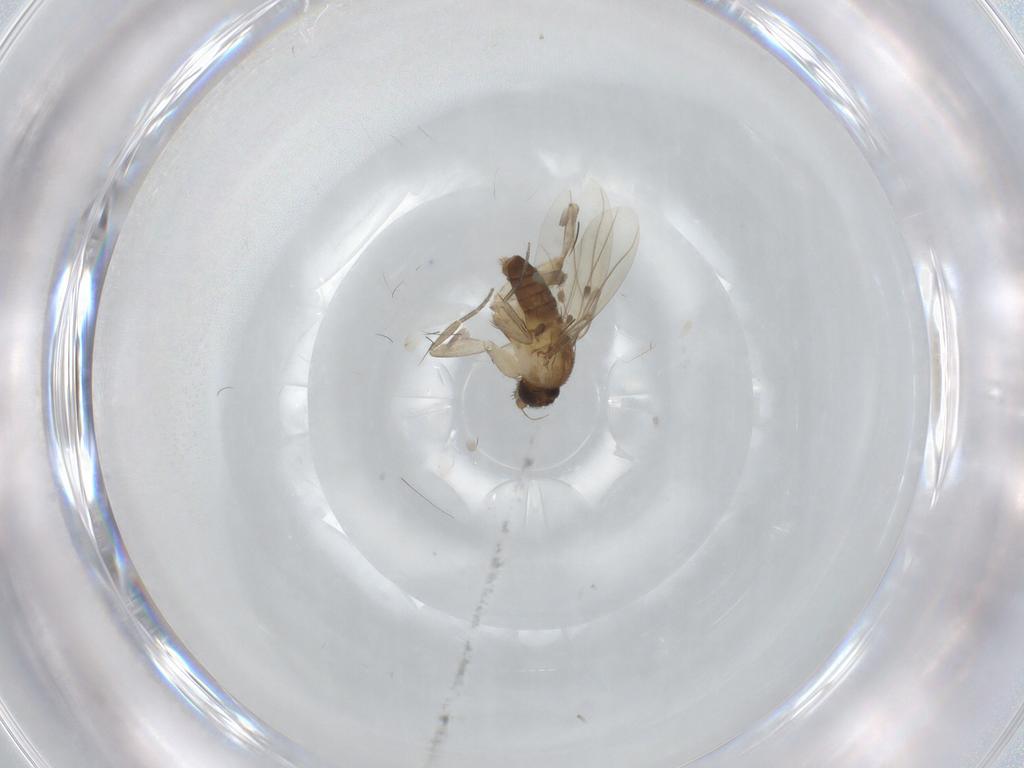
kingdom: Animalia
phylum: Arthropoda
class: Insecta
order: Diptera
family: Phoridae
